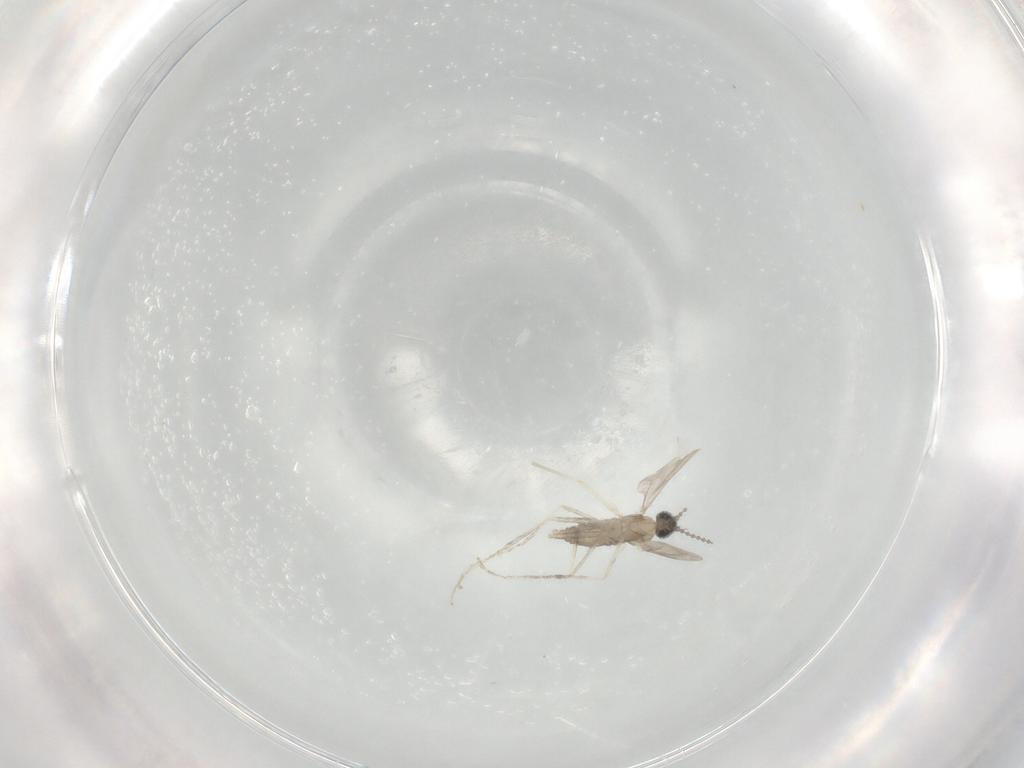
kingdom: Animalia
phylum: Arthropoda
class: Insecta
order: Diptera
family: Cecidomyiidae
